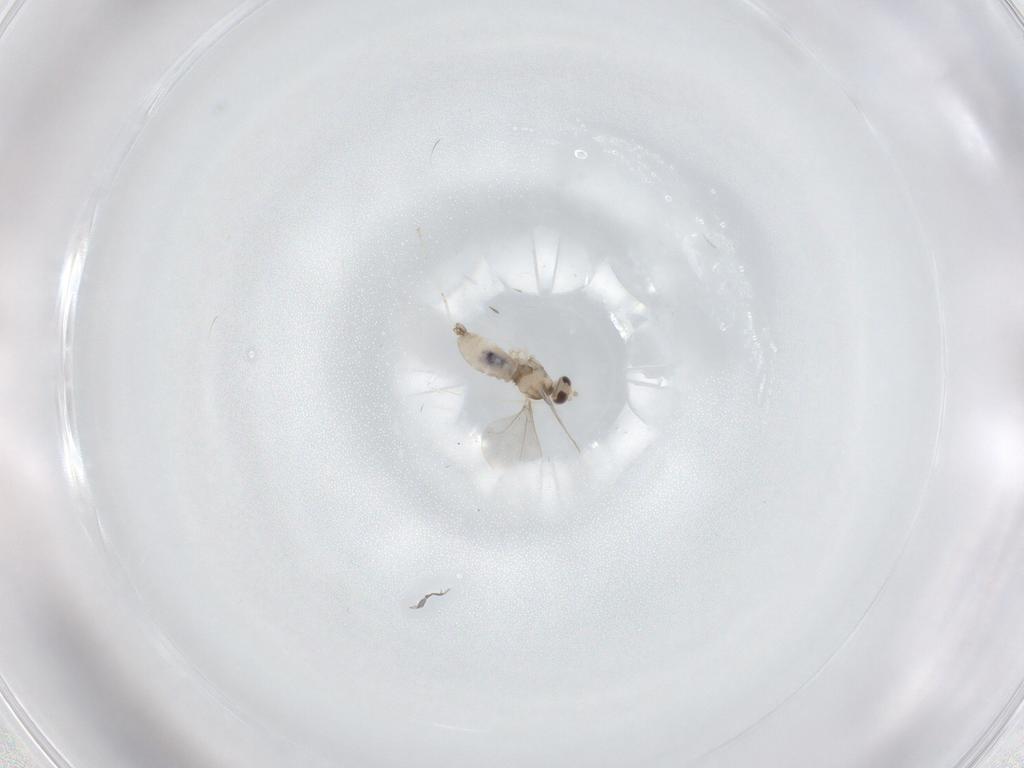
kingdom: Animalia
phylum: Arthropoda
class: Insecta
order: Diptera
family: Cecidomyiidae
